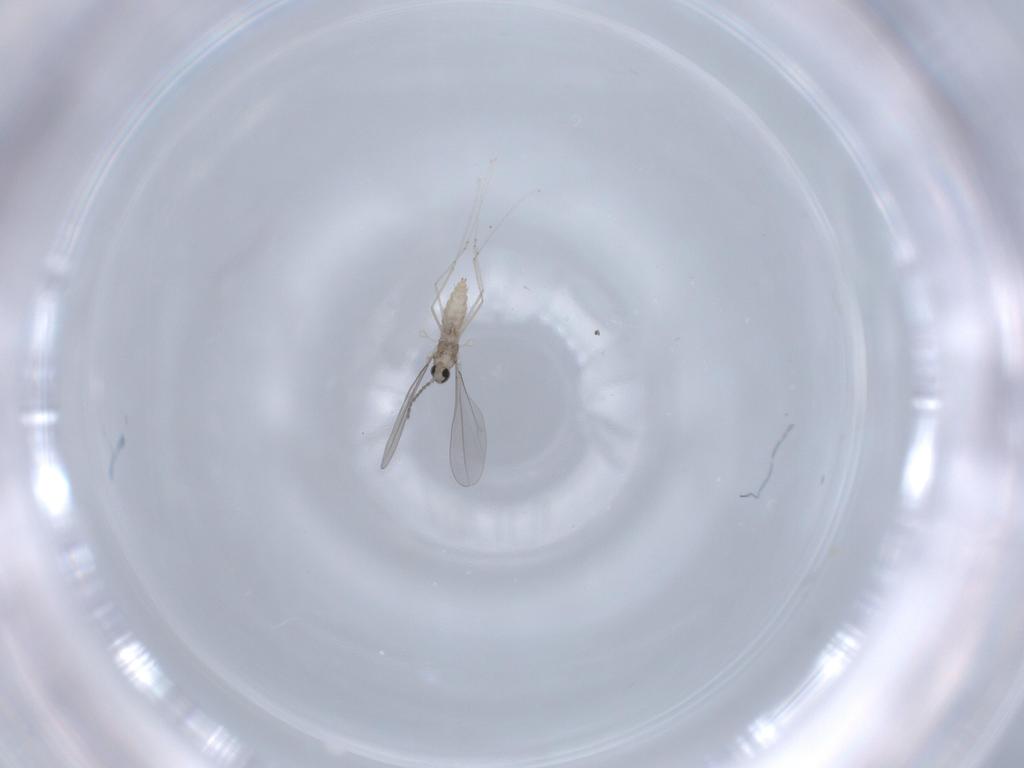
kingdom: Animalia
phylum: Arthropoda
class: Insecta
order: Diptera
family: Cecidomyiidae
